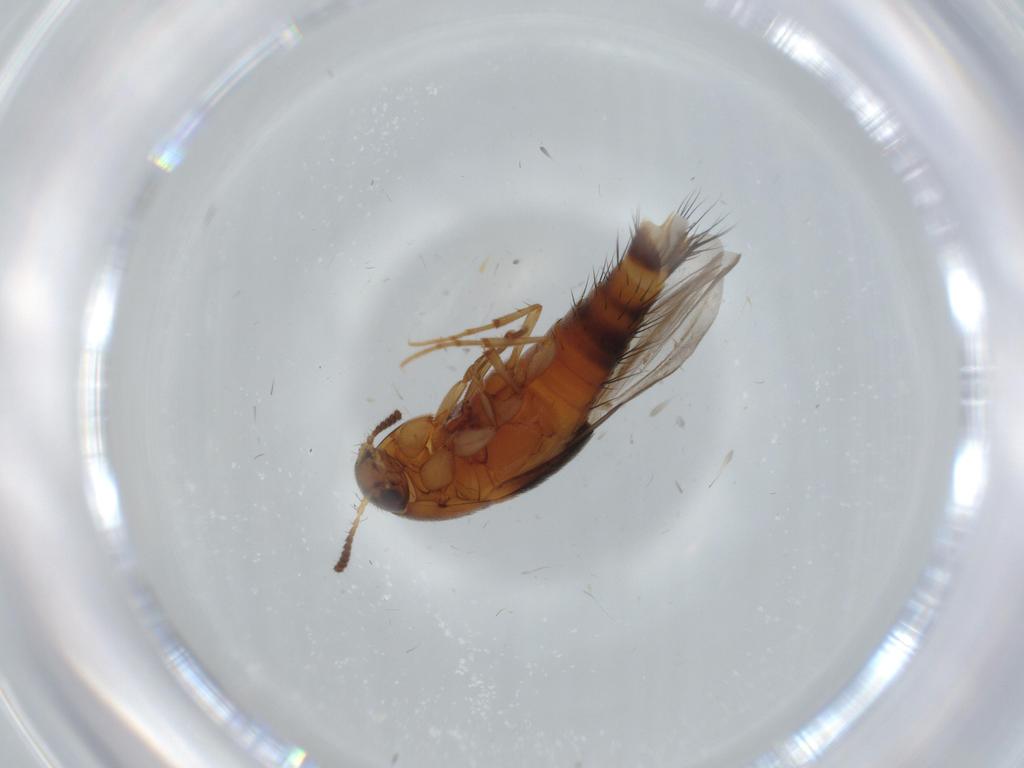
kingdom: Animalia
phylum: Arthropoda
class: Insecta
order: Coleoptera
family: Staphylinidae
